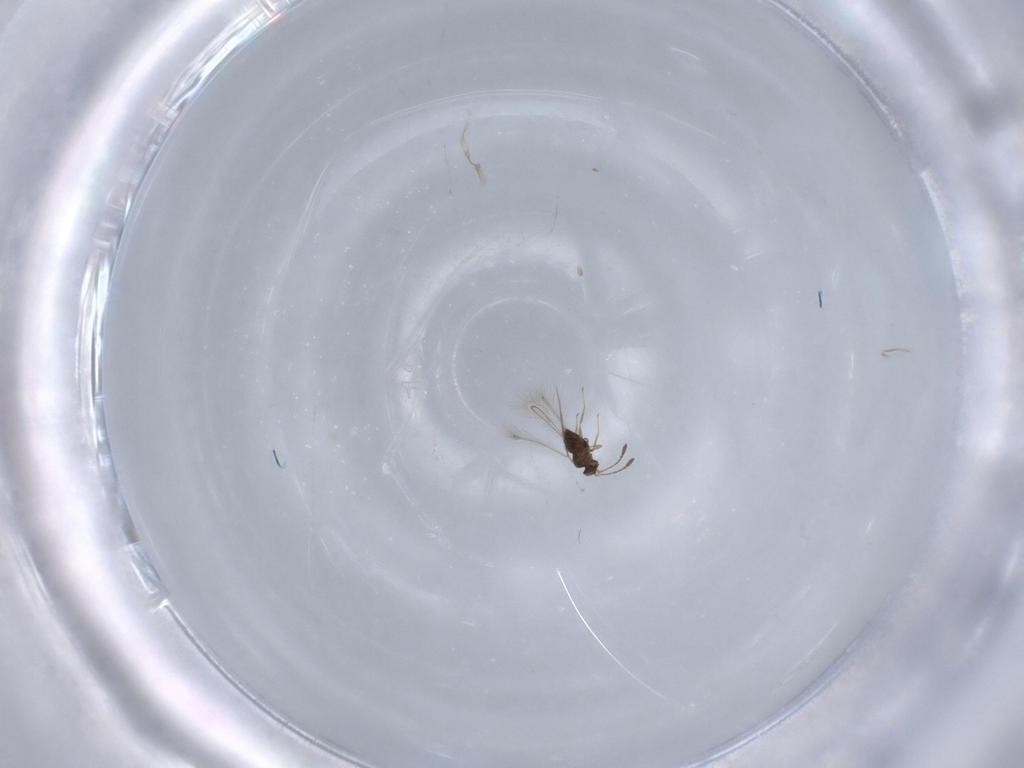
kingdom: Animalia
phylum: Arthropoda
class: Insecta
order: Hymenoptera
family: Braconidae
